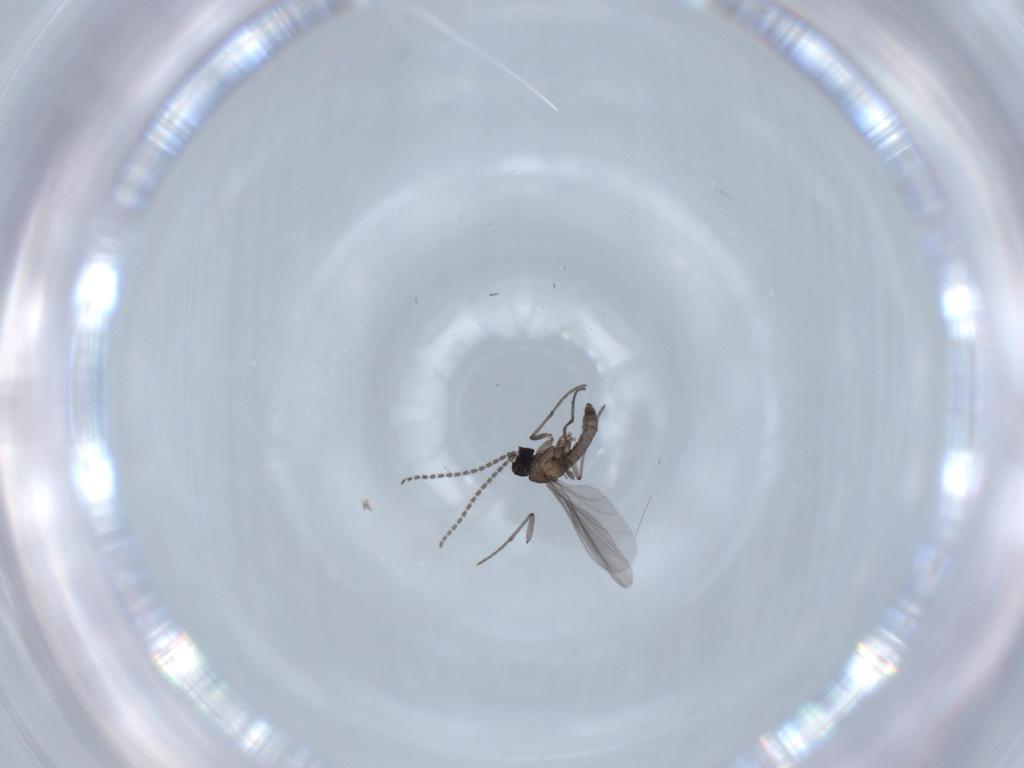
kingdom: Animalia
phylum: Arthropoda
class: Insecta
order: Diptera
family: Sciaridae
